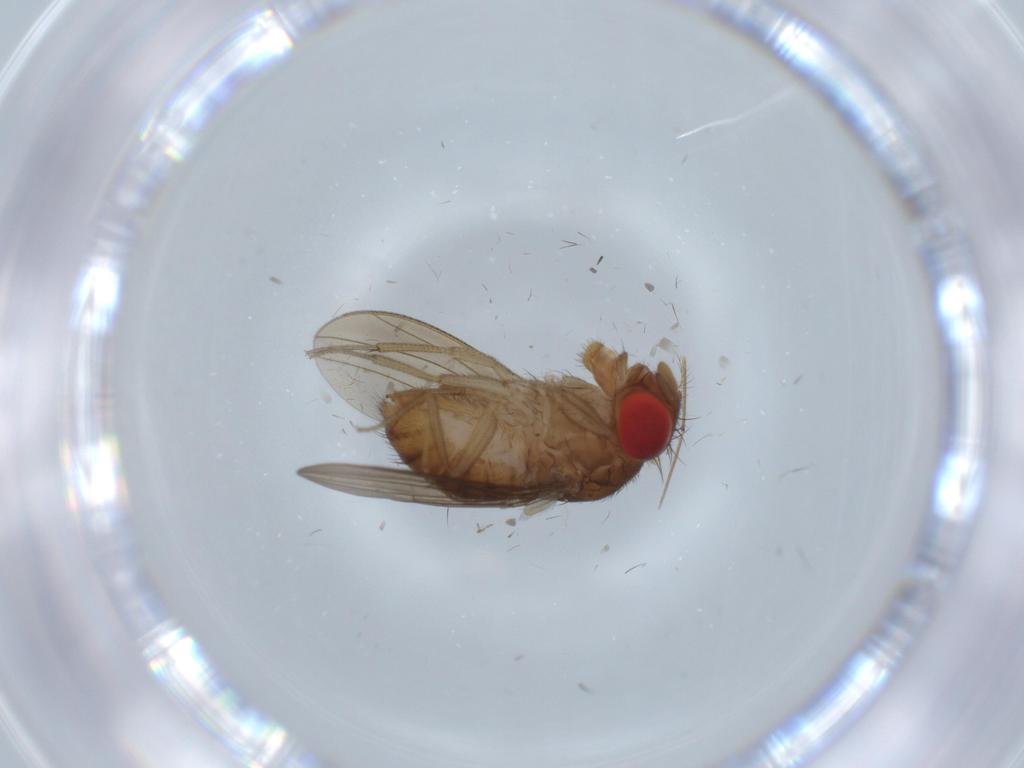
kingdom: Animalia
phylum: Arthropoda
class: Insecta
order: Diptera
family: Drosophilidae
